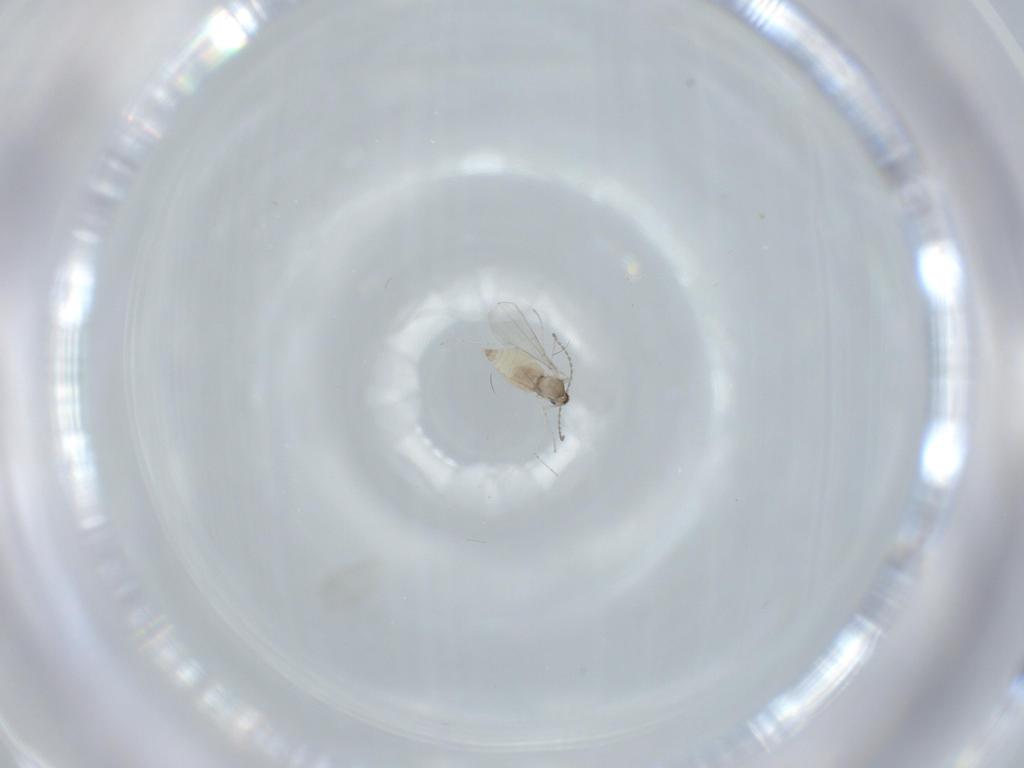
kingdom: Animalia
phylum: Arthropoda
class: Insecta
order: Diptera
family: Cecidomyiidae
